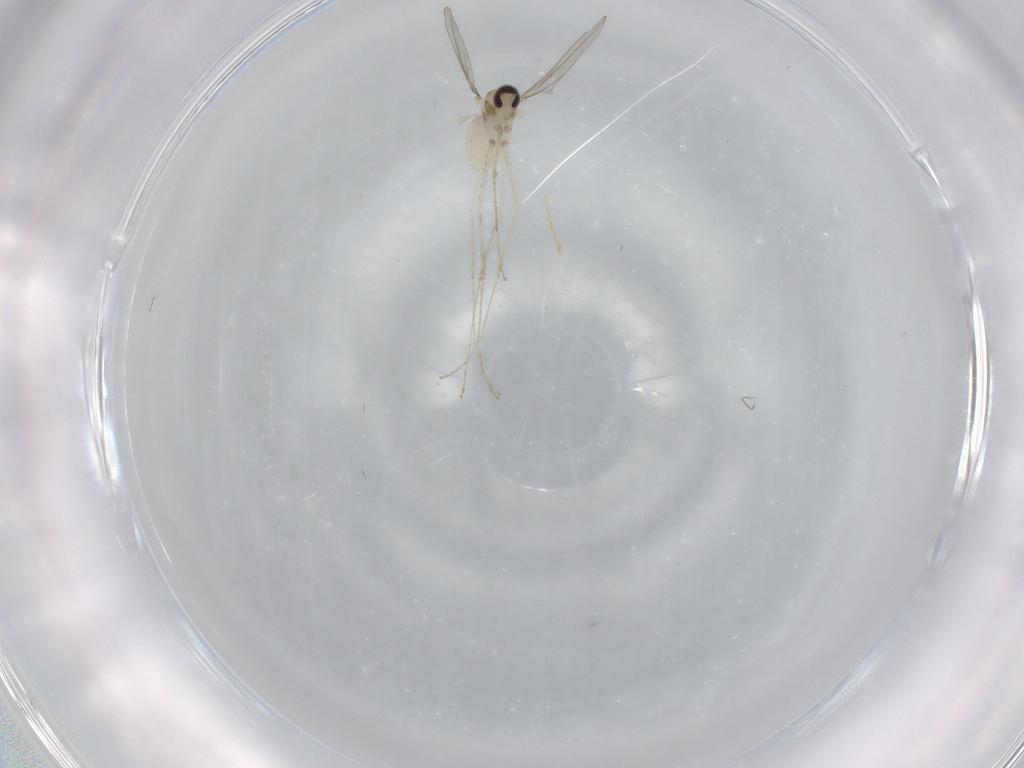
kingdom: Animalia
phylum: Arthropoda
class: Insecta
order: Diptera
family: Cecidomyiidae
